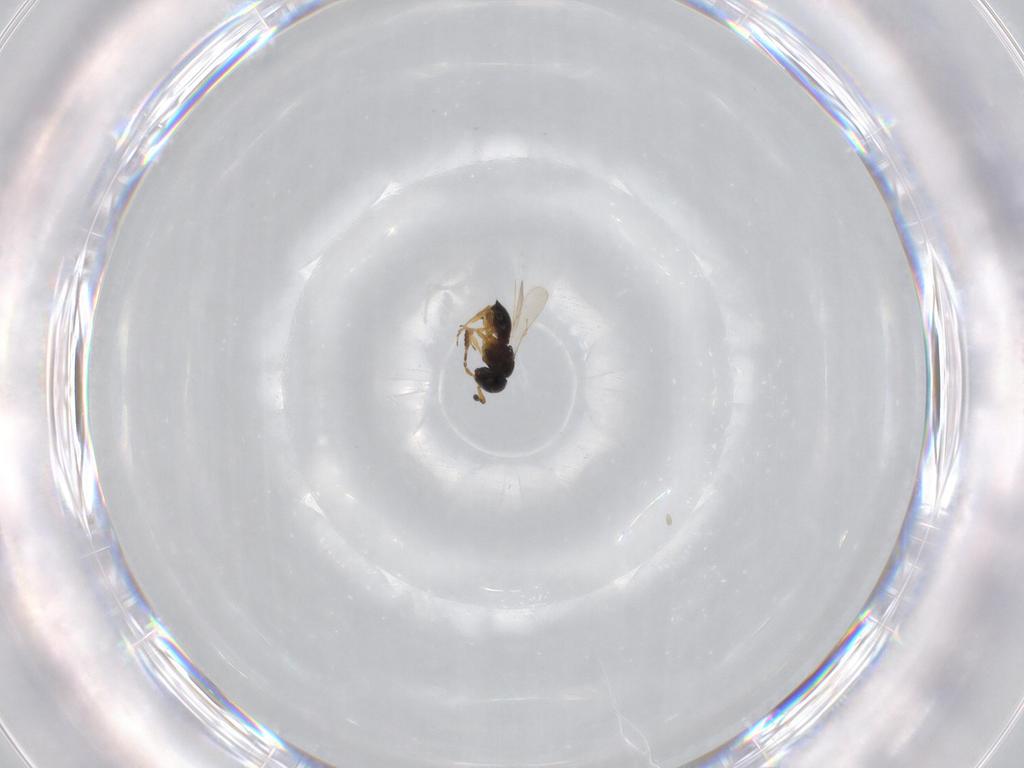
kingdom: Animalia
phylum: Arthropoda
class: Insecta
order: Hymenoptera
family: Scelionidae
